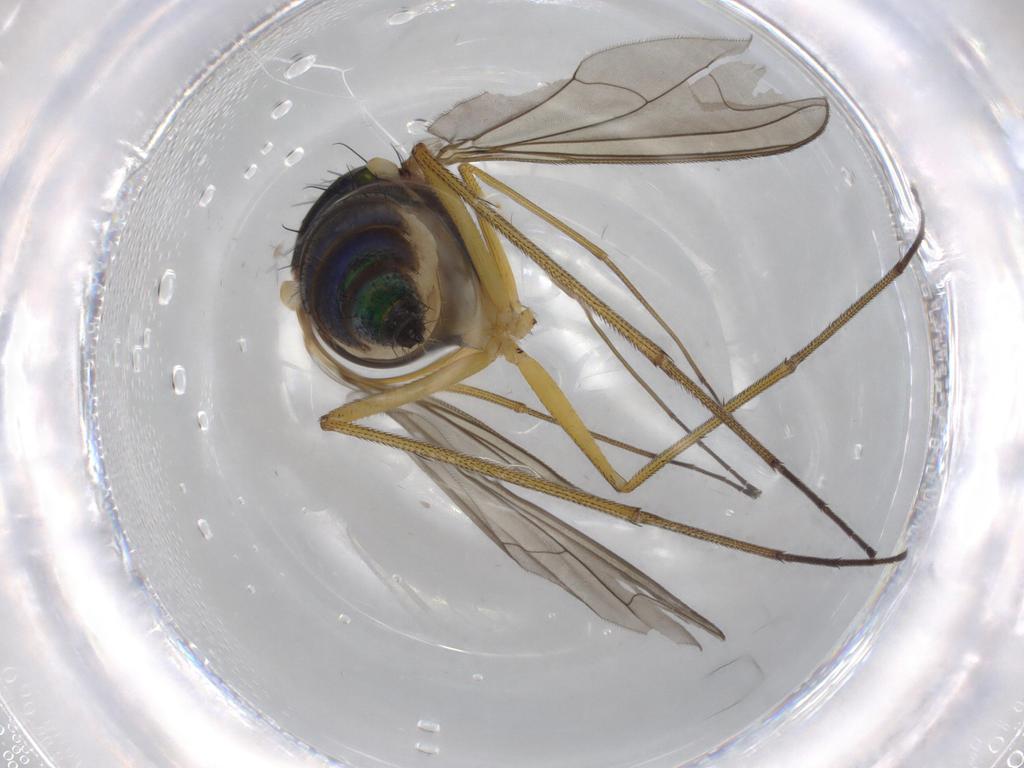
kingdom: Animalia
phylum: Arthropoda
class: Insecta
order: Diptera
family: Dolichopodidae
